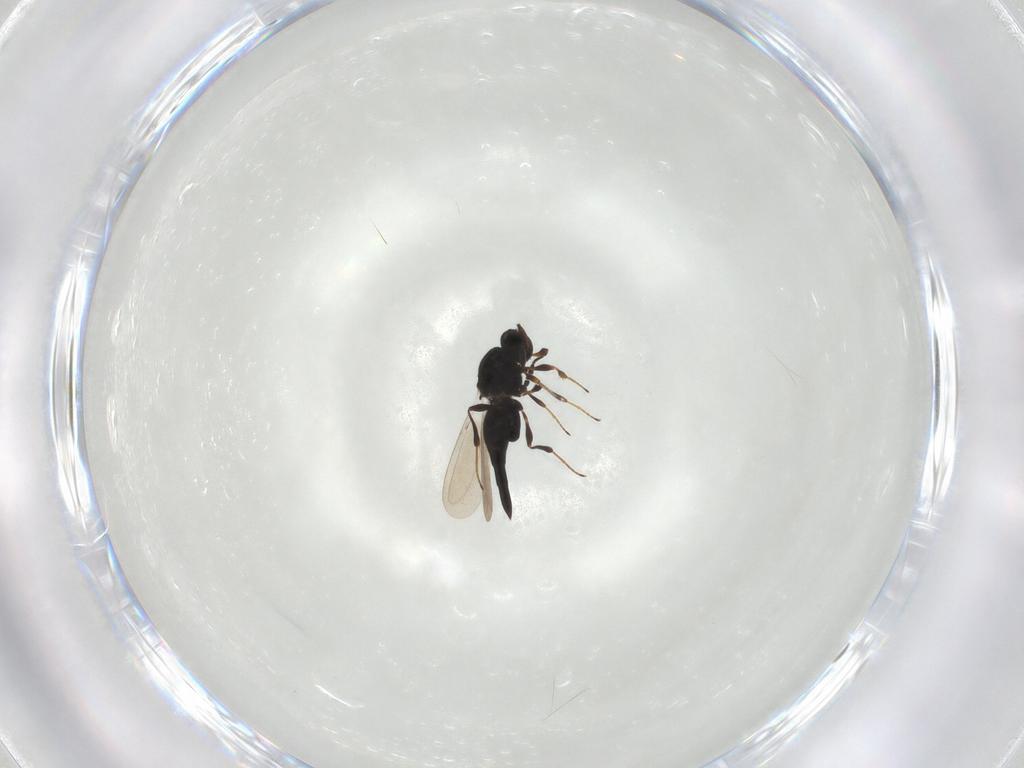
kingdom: Animalia
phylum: Arthropoda
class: Insecta
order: Hymenoptera
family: Platygastridae
